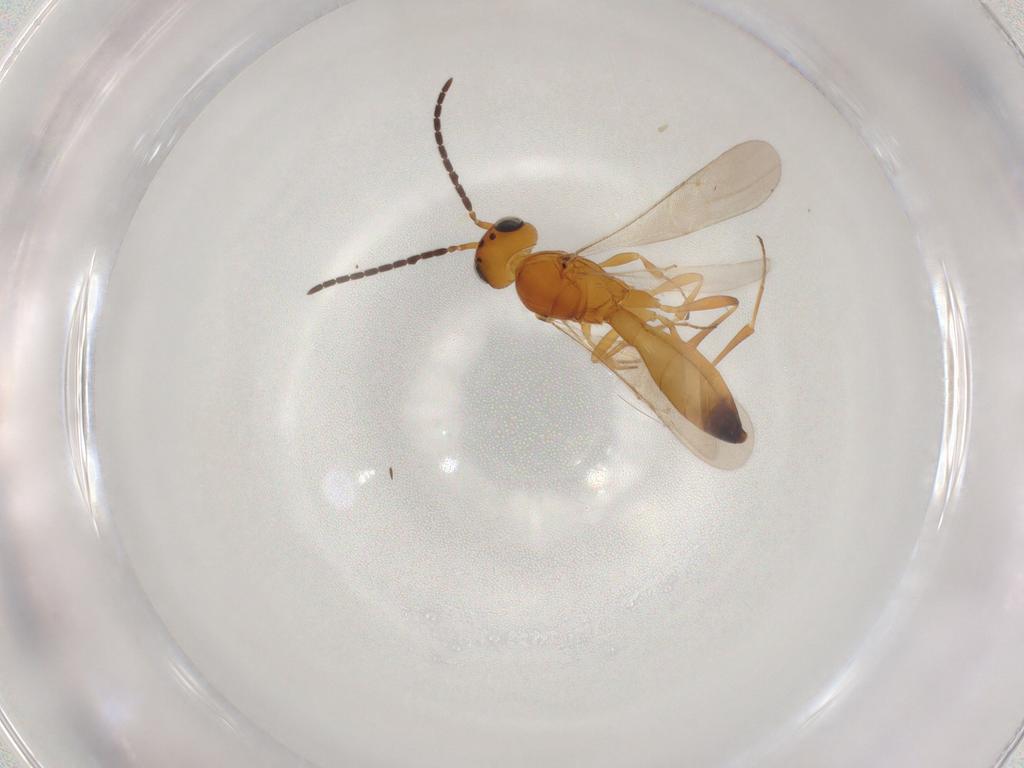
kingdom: Animalia
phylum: Arthropoda
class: Insecta
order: Hymenoptera
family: Scelionidae
